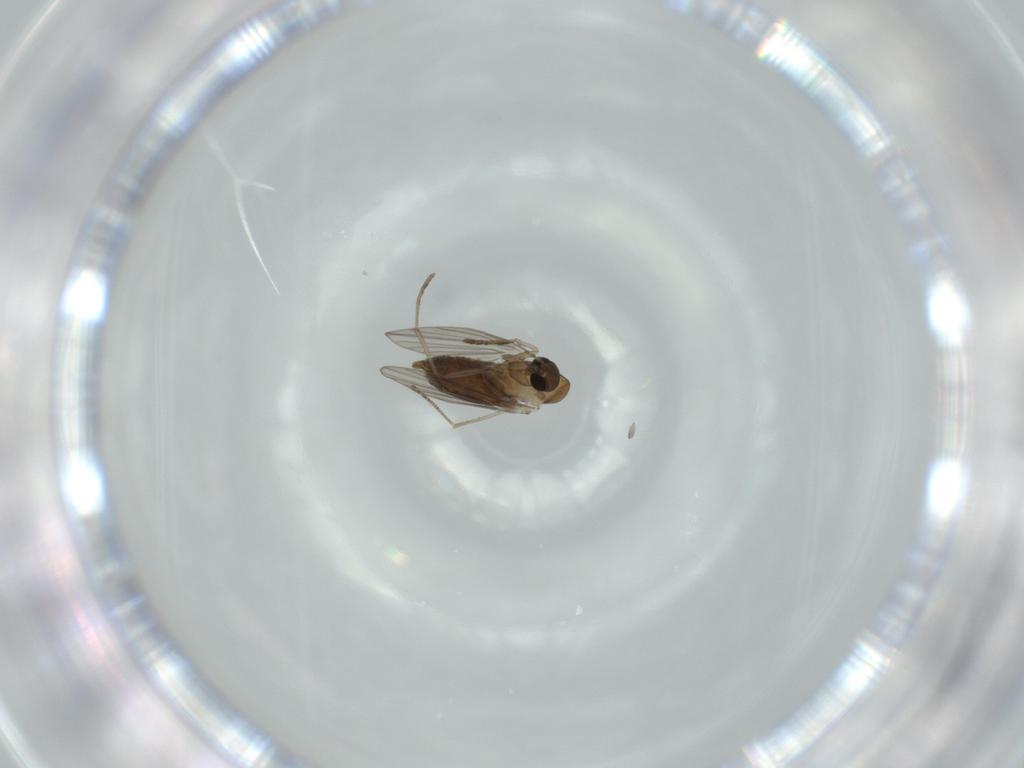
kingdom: Animalia
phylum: Arthropoda
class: Insecta
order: Diptera
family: Psychodidae
